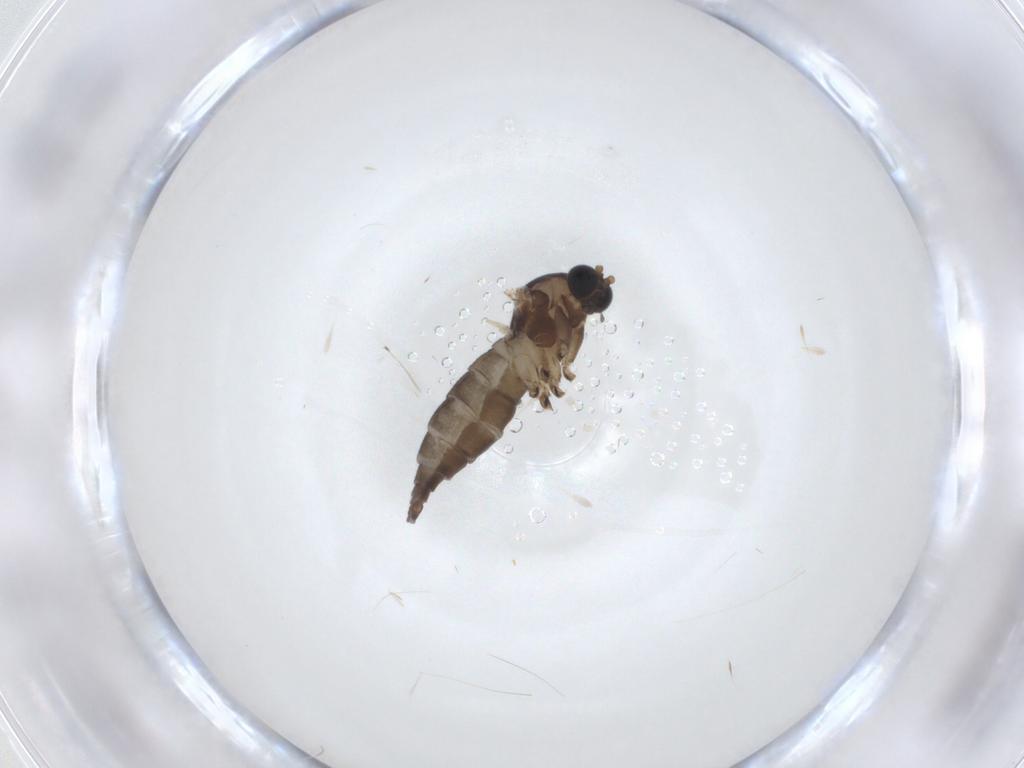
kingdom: Animalia
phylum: Arthropoda
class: Insecta
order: Diptera
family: Sciaridae
